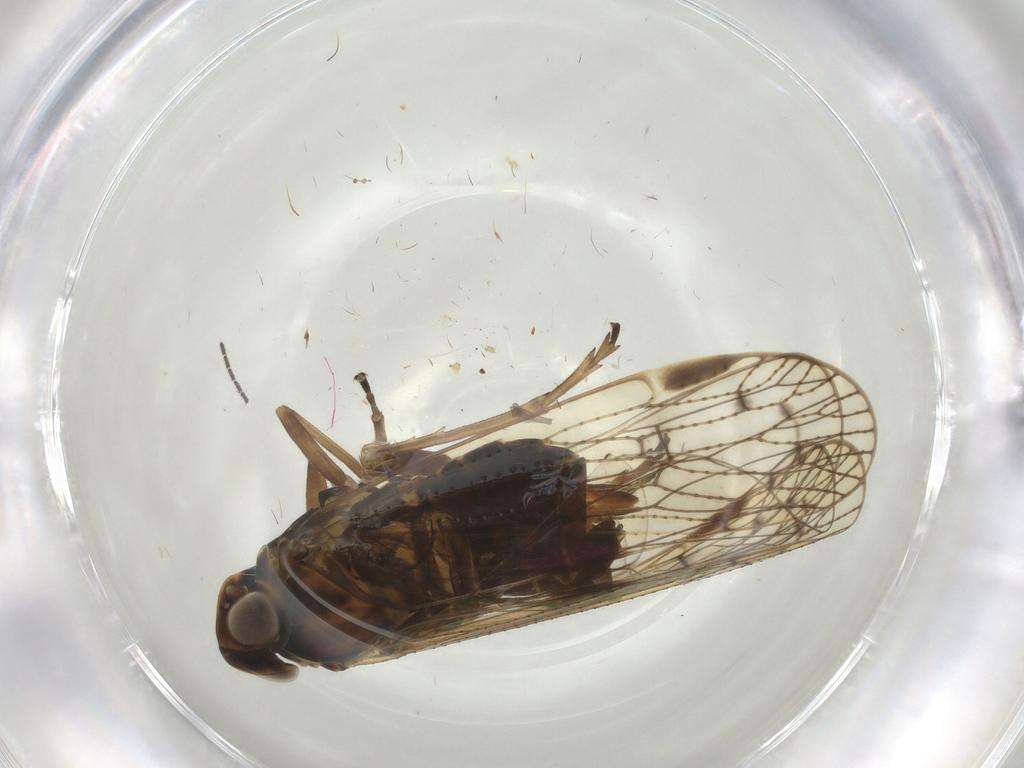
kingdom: Animalia
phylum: Arthropoda
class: Insecta
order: Hemiptera
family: Cixiidae
